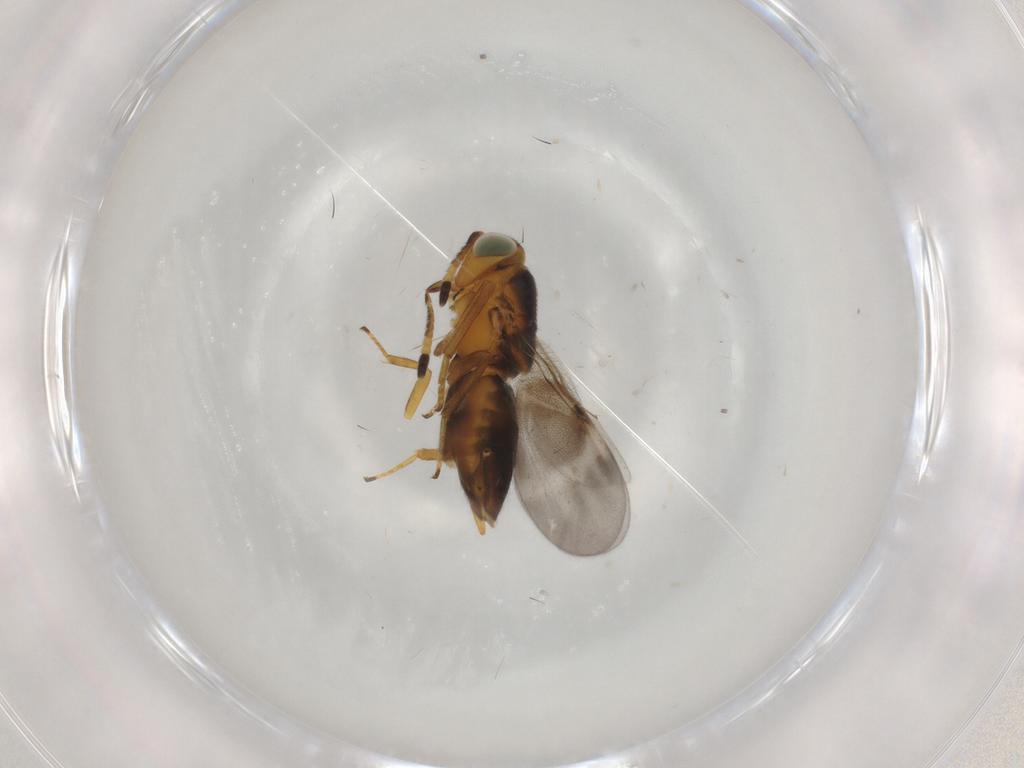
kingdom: Animalia
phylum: Arthropoda
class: Insecta
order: Hymenoptera
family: Encyrtidae
